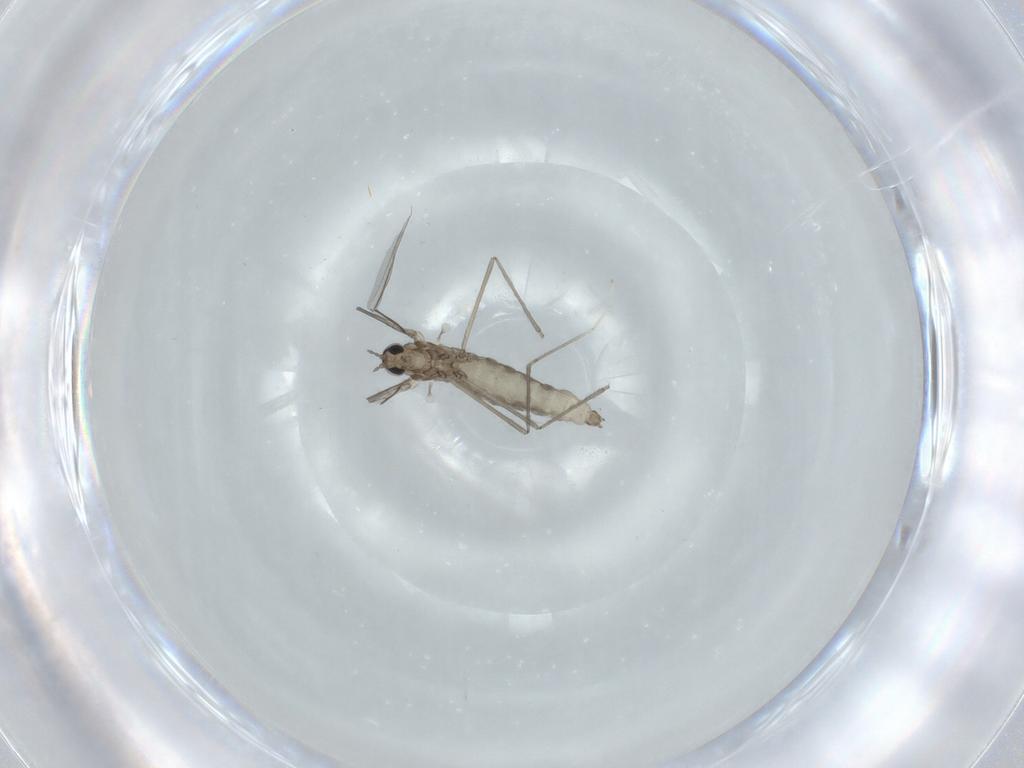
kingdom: Animalia
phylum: Arthropoda
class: Insecta
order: Diptera
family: Cecidomyiidae
